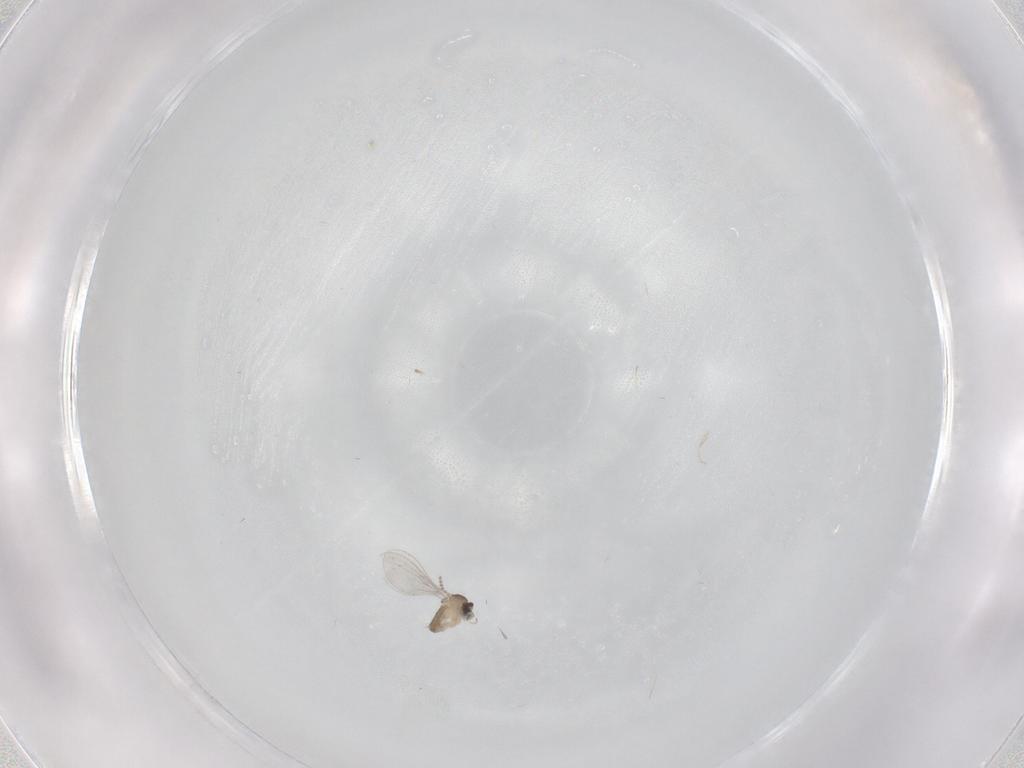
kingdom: Animalia
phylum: Arthropoda
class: Insecta
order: Diptera
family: Cecidomyiidae
